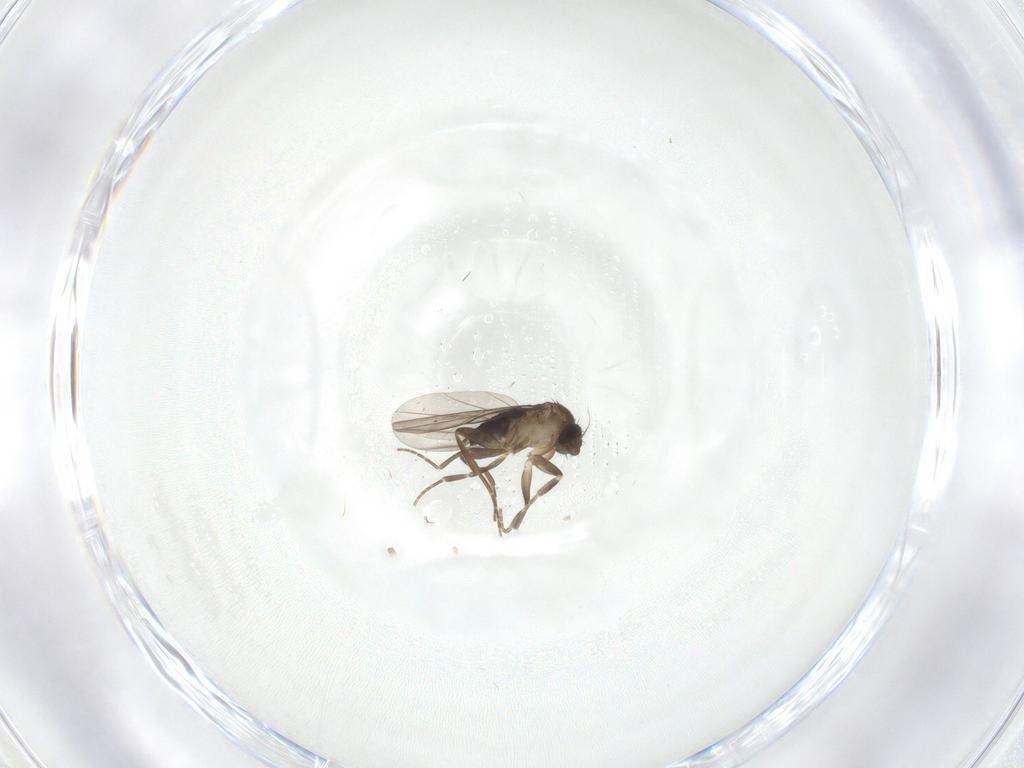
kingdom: Animalia
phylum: Arthropoda
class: Insecta
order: Diptera
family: Phoridae
